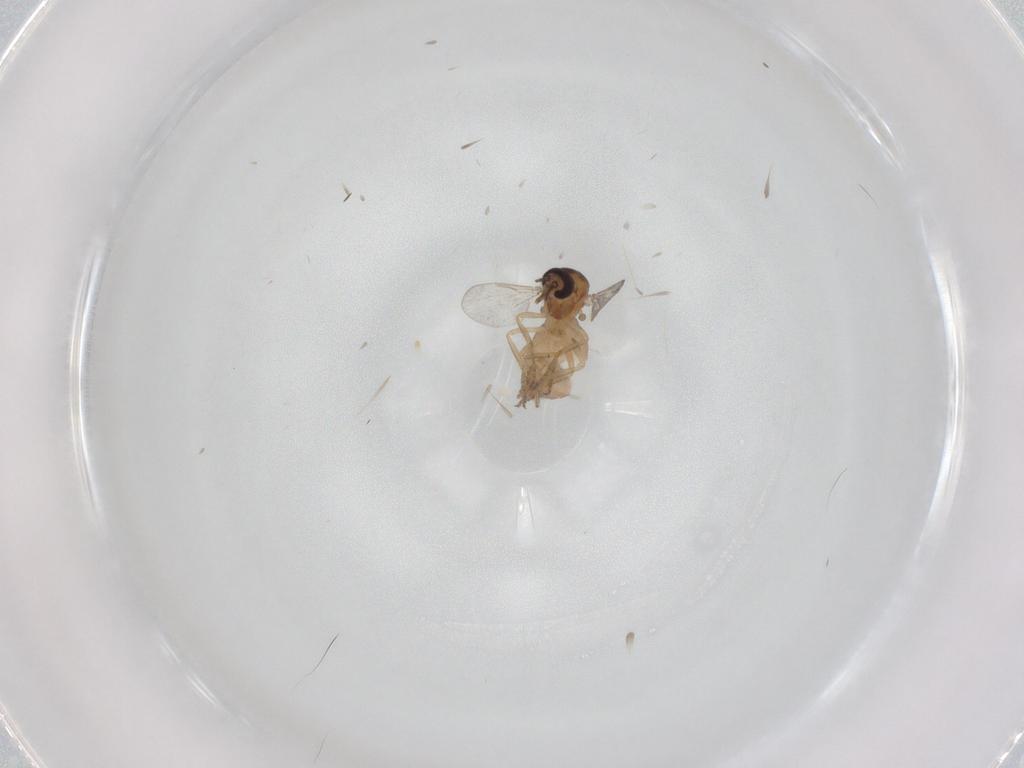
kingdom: Animalia
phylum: Arthropoda
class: Insecta
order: Diptera
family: Ceratopogonidae
